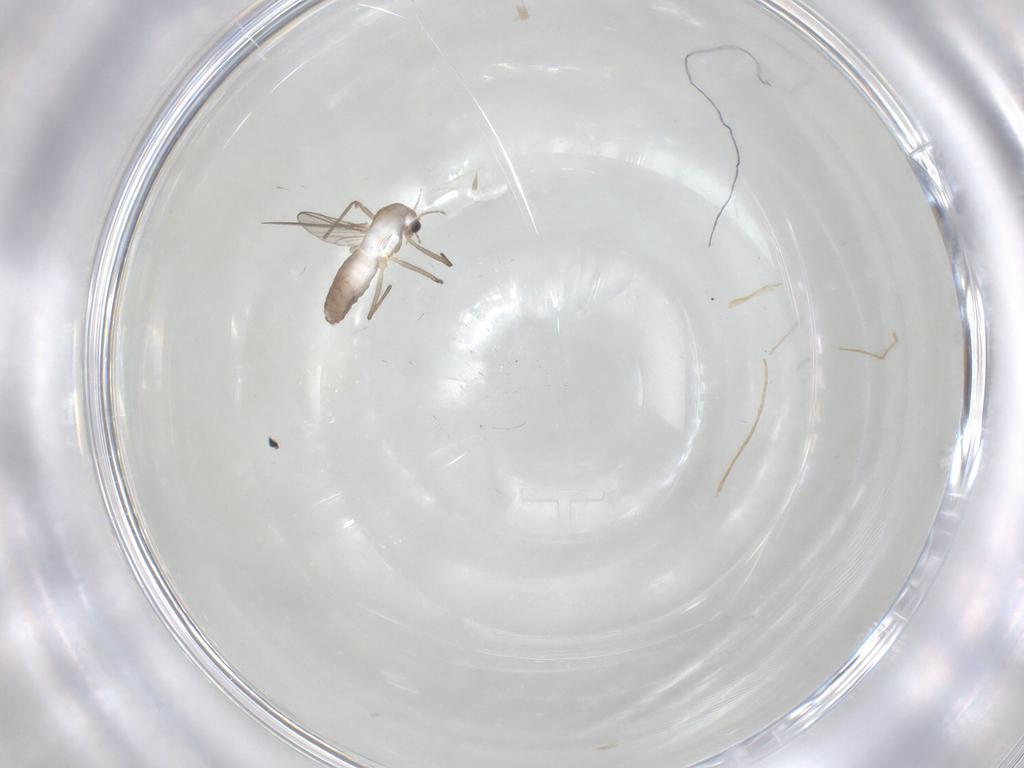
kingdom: Animalia
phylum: Arthropoda
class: Insecta
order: Diptera
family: Chironomidae
